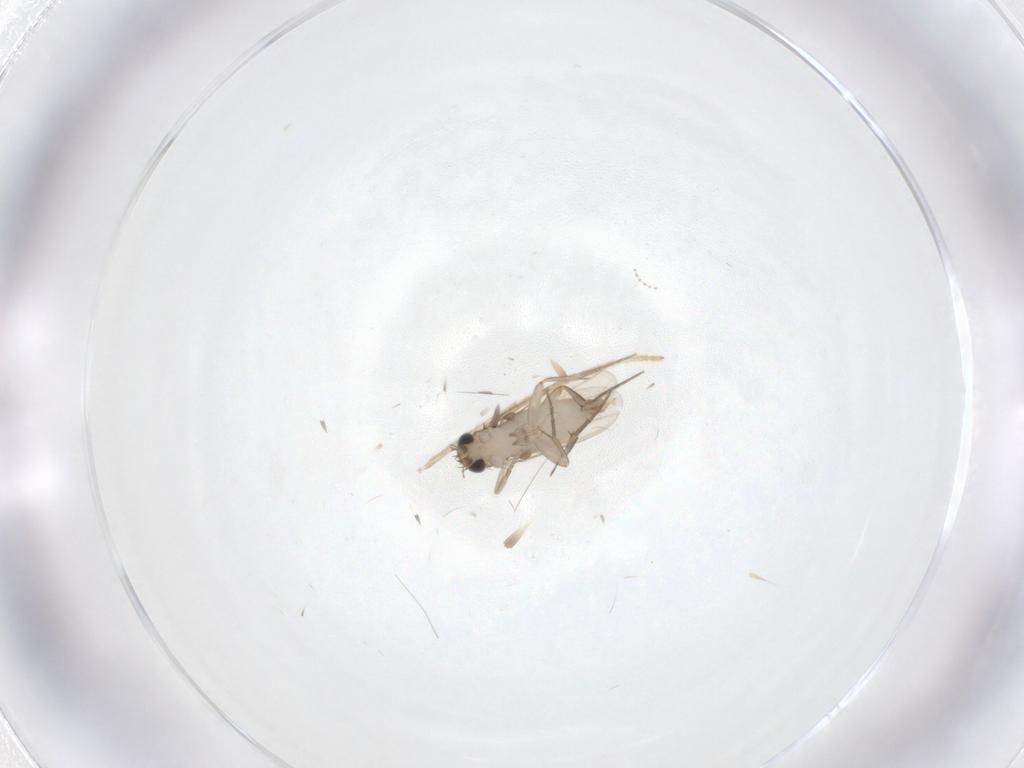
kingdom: Animalia
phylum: Arthropoda
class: Insecta
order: Diptera
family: Phoridae
